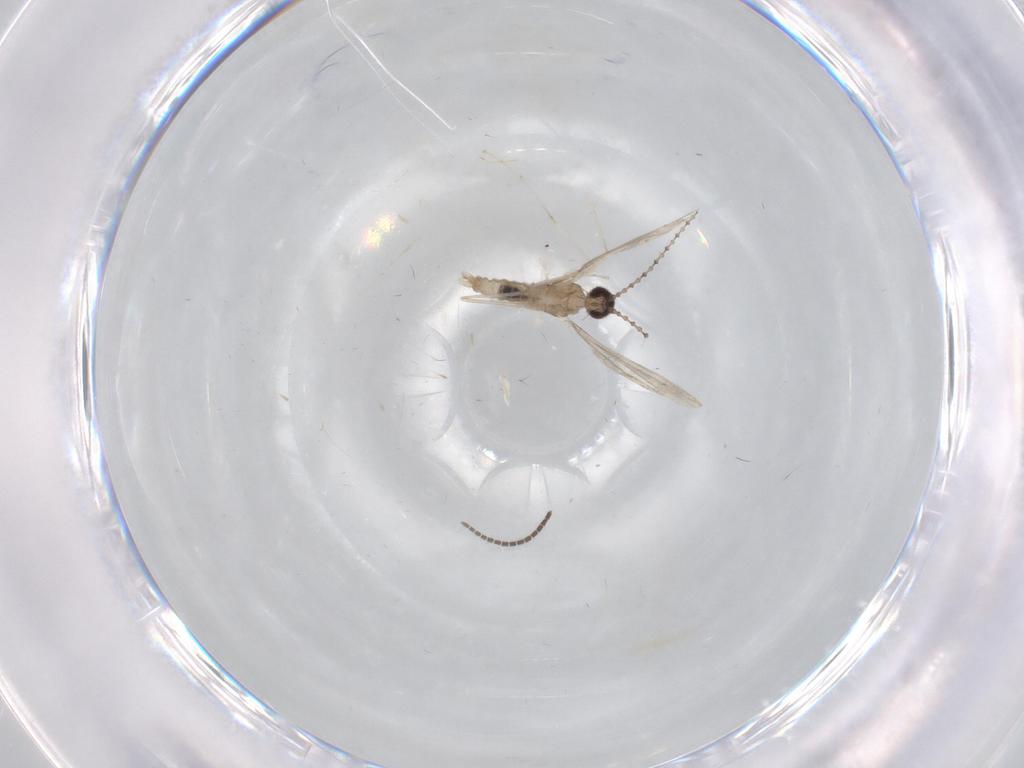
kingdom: Animalia
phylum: Arthropoda
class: Insecta
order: Diptera
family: Cecidomyiidae
